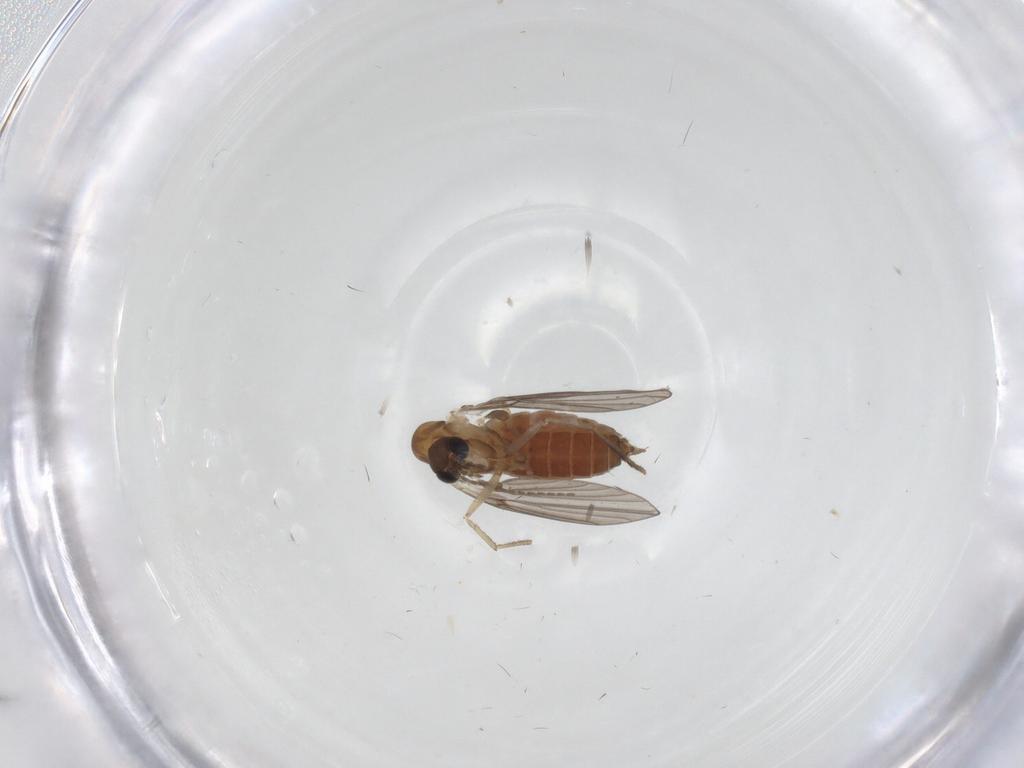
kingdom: Animalia
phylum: Arthropoda
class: Insecta
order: Diptera
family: Cecidomyiidae
